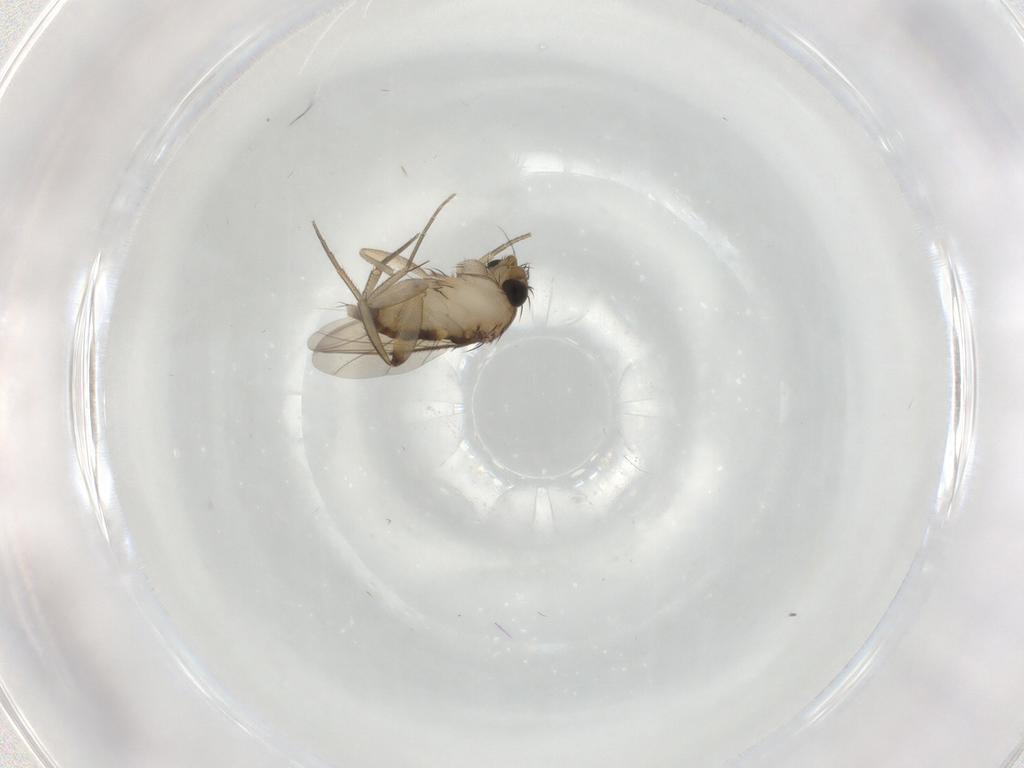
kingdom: Animalia
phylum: Arthropoda
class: Insecta
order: Diptera
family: Phoridae
